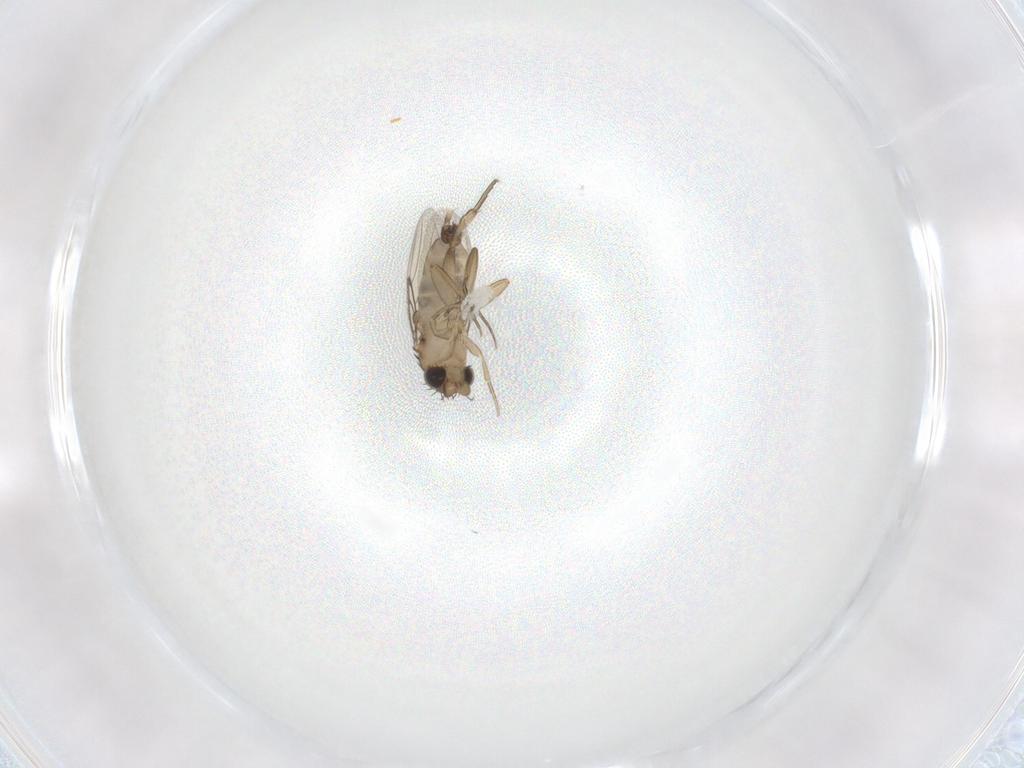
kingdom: Animalia
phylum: Arthropoda
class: Insecta
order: Diptera
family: Phoridae
